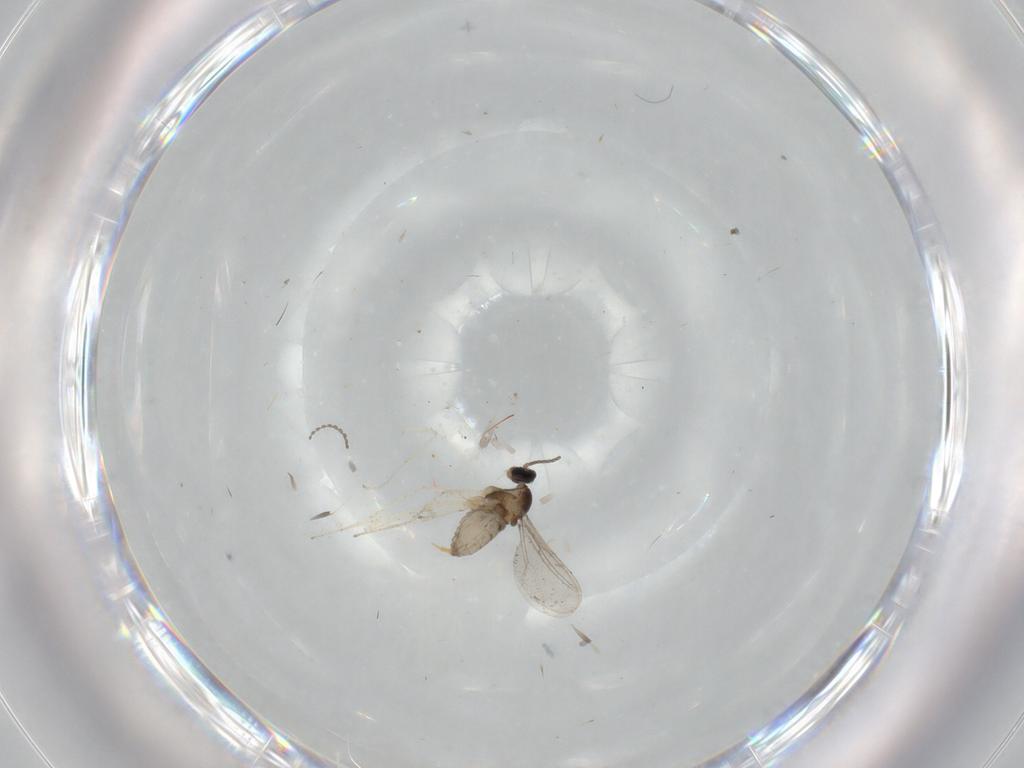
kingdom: Animalia
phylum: Arthropoda
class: Insecta
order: Diptera
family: Cecidomyiidae
